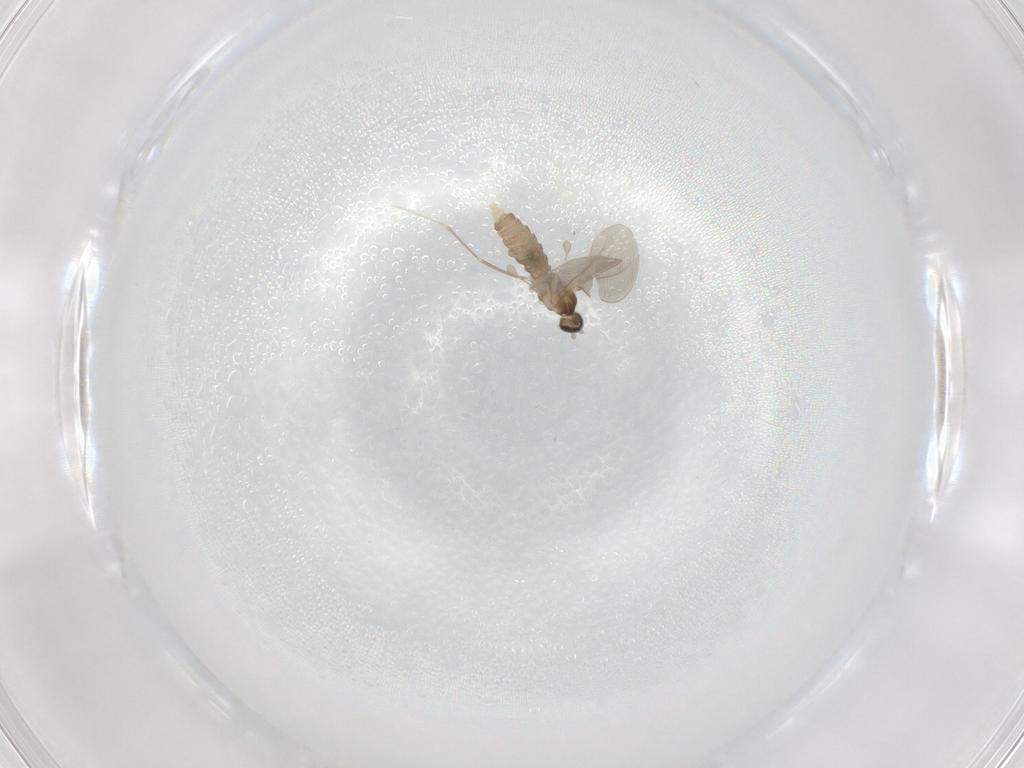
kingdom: Animalia
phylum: Arthropoda
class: Insecta
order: Diptera
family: Cecidomyiidae
